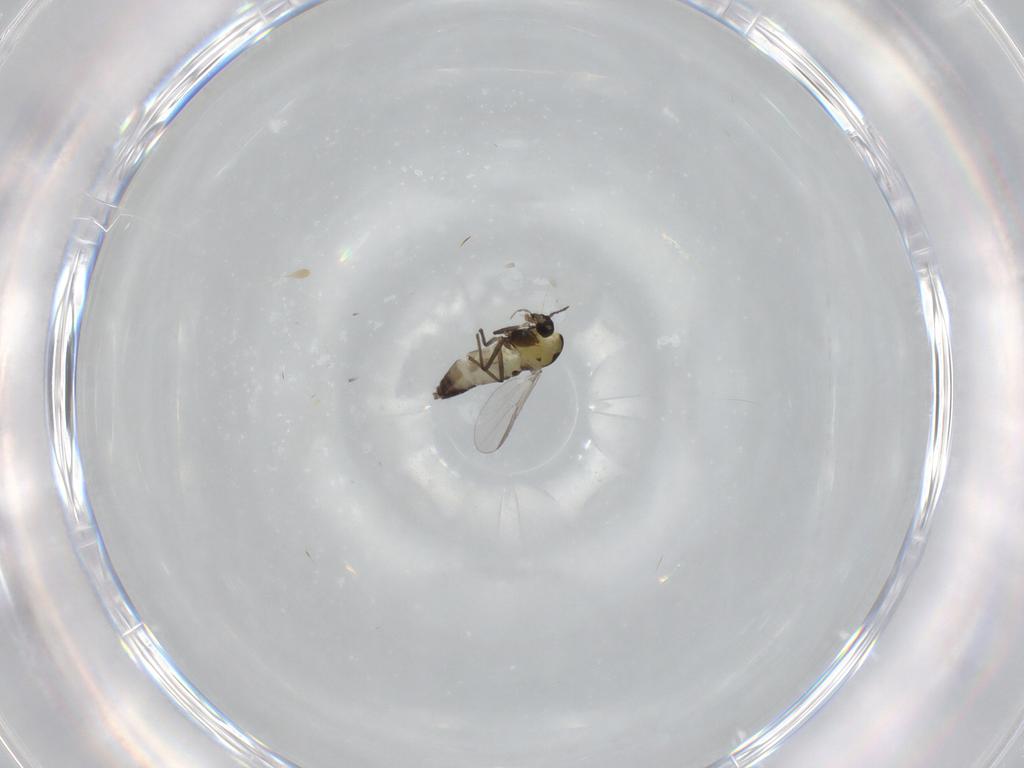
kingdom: Animalia
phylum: Arthropoda
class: Insecta
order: Diptera
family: Chironomidae
